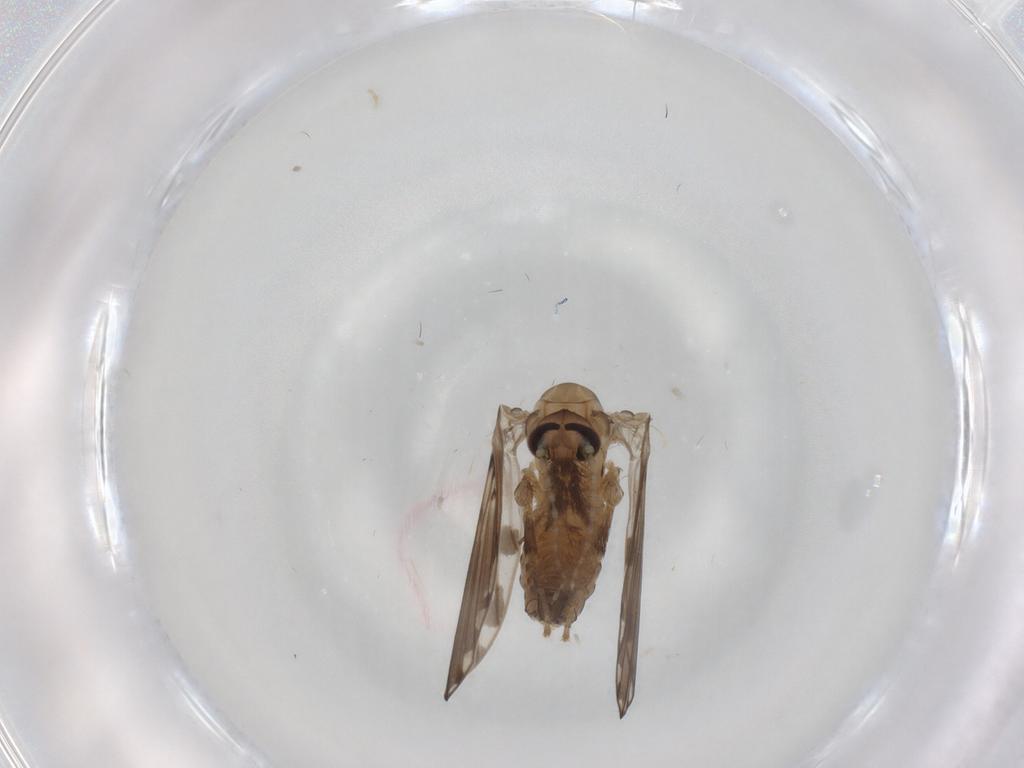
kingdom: Animalia
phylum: Arthropoda
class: Insecta
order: Diptera
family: Psychodidae
